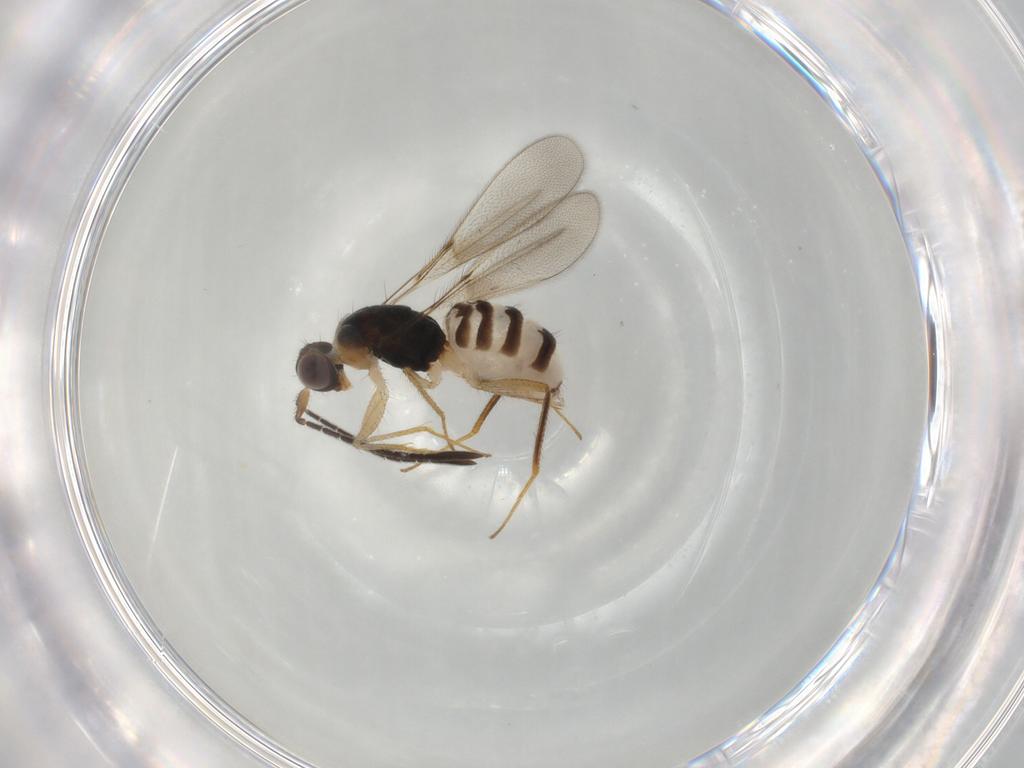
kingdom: Animalia
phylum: Arthropoda
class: Insecta
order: Hymenoptera
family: Mymaridae
